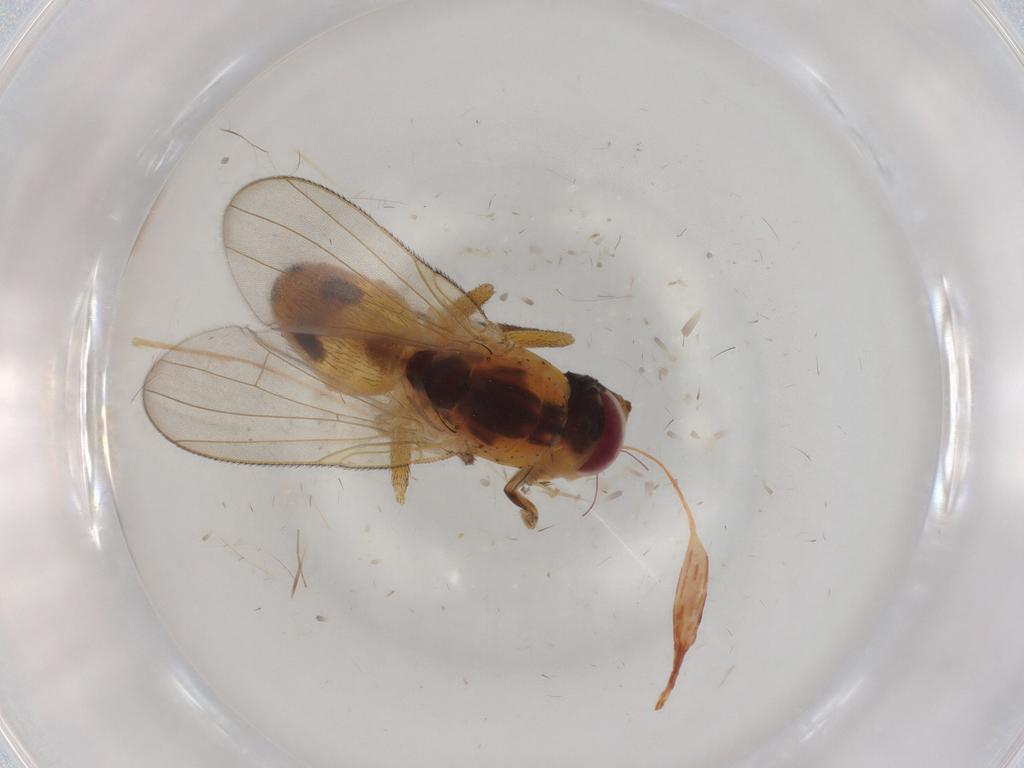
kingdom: Animalia
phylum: Arthropoda
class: Insecta
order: Diptera
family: Muscidae
